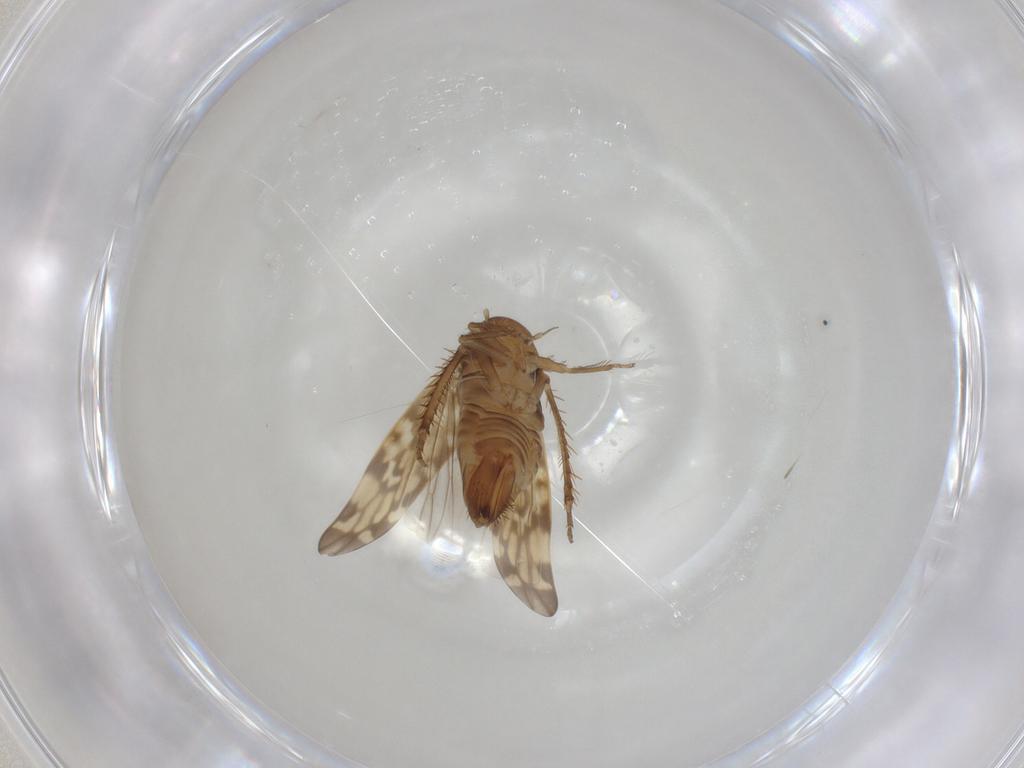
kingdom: Animalia
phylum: Arthropoda
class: Insecta
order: Hemiptera
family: Cicadellidae
